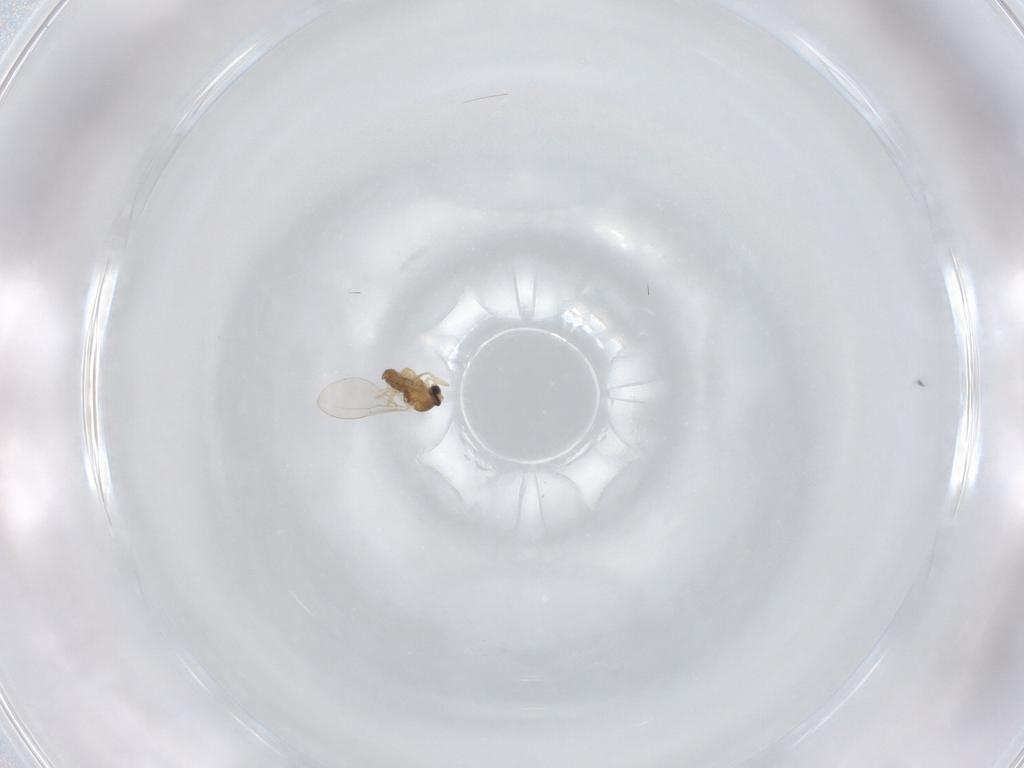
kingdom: Animalia
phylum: Arthropoda
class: Insecta
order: Diptera
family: Cecidomyiidae
